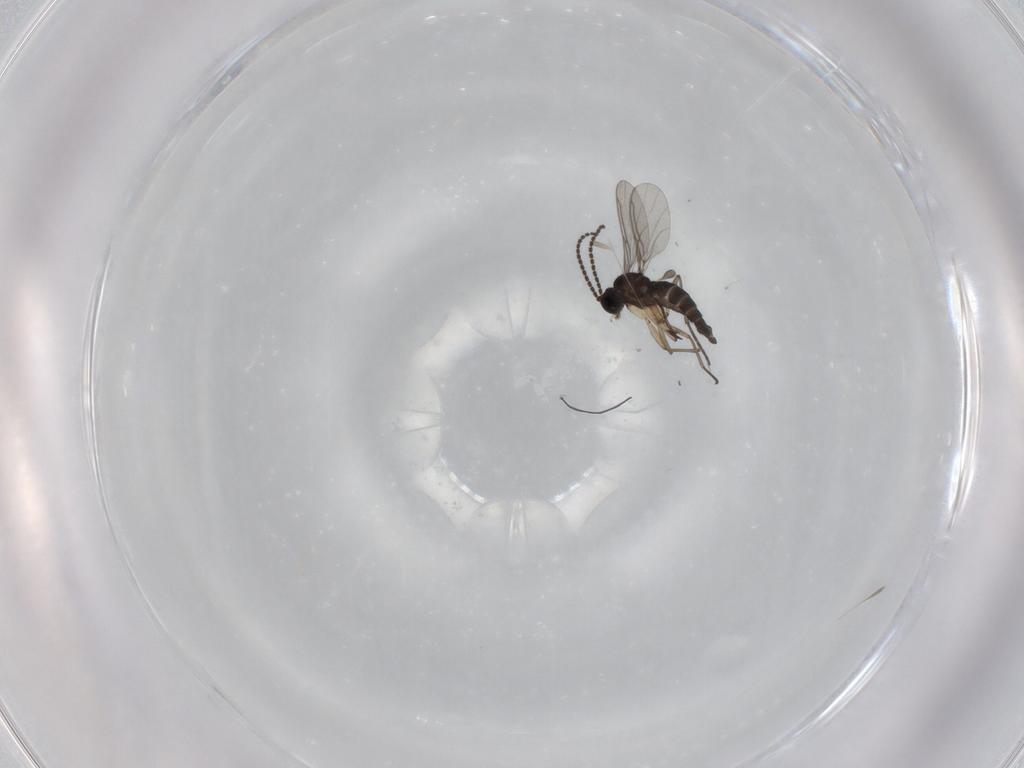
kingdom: Animalia
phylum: Arthropoda
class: Insecta
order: Diptera
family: Sciaridae
